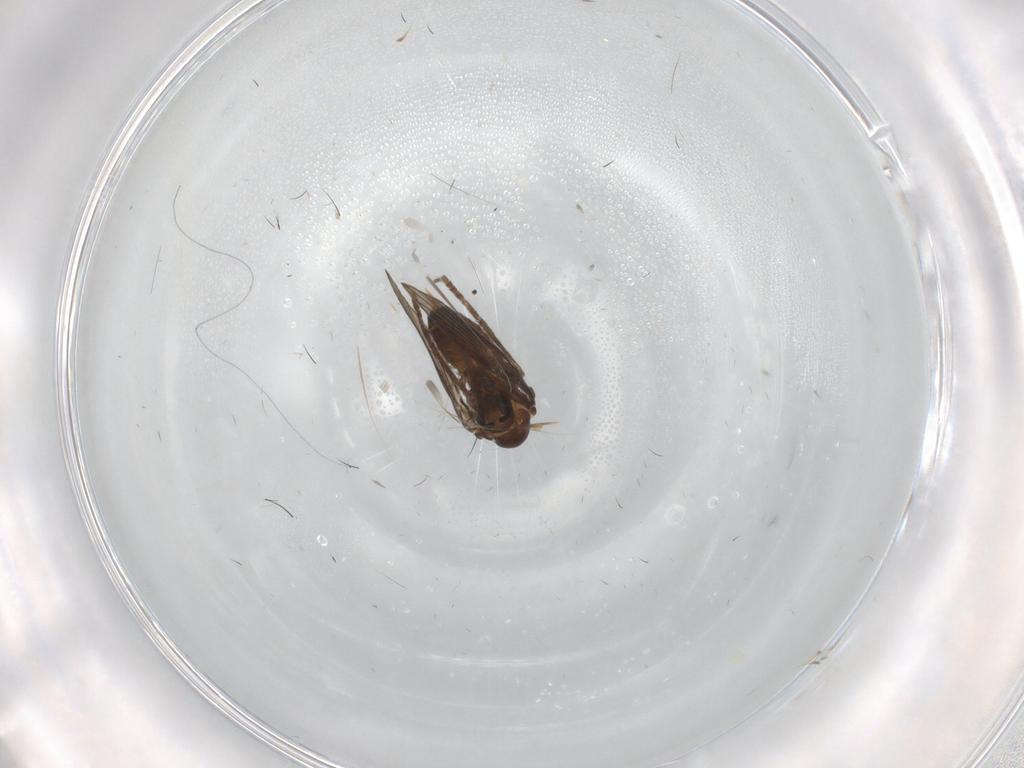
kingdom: Animalia
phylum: Arthropoda
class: Insecta
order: Diptera
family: Psychodidae
